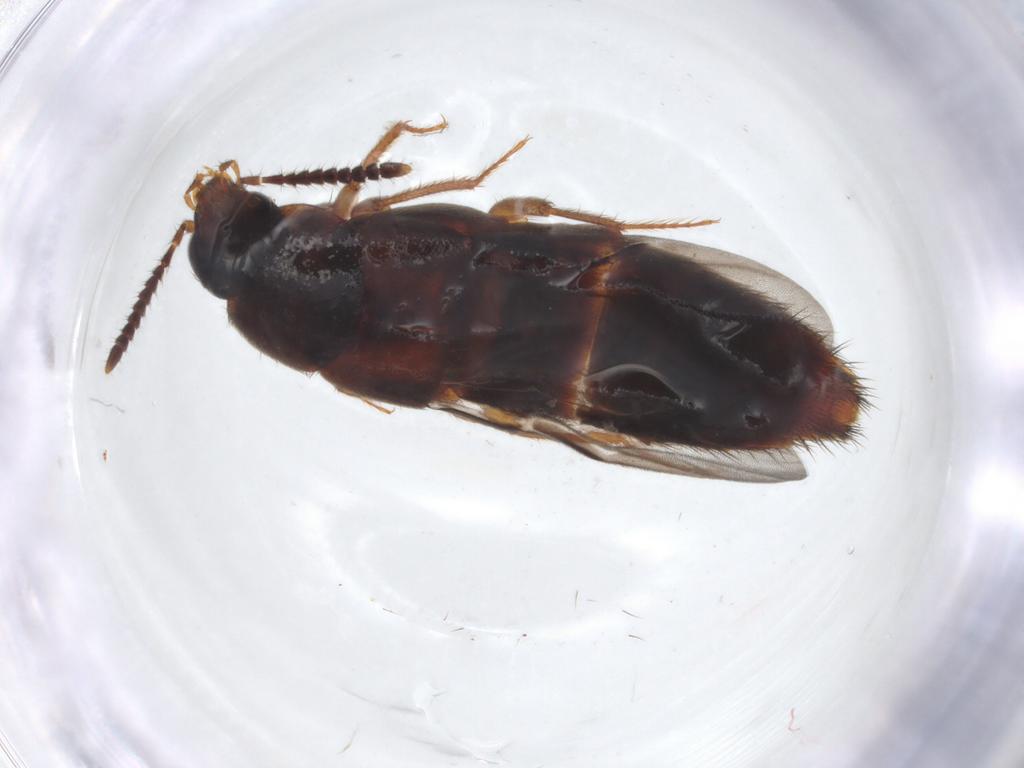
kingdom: Animalia
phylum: Arthropoda
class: Insecta
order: Coleoptera
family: Staphylinidae
